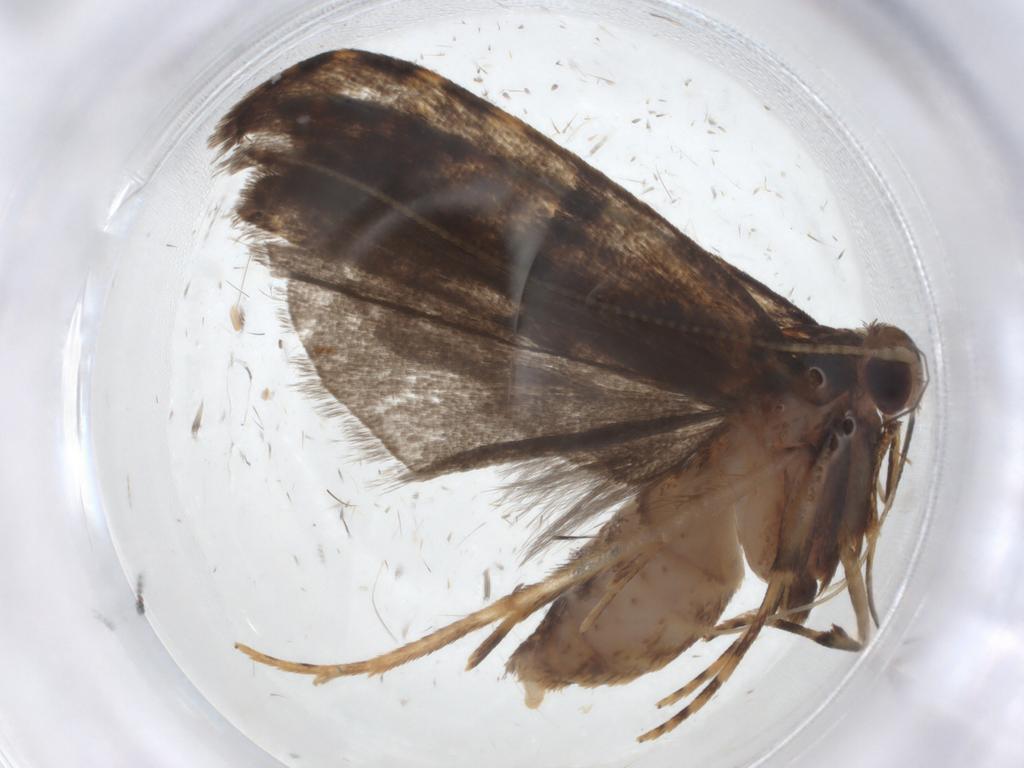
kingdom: Animalia
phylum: Arthropoda
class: Insecta
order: Lepidoptera
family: Autostichidae
